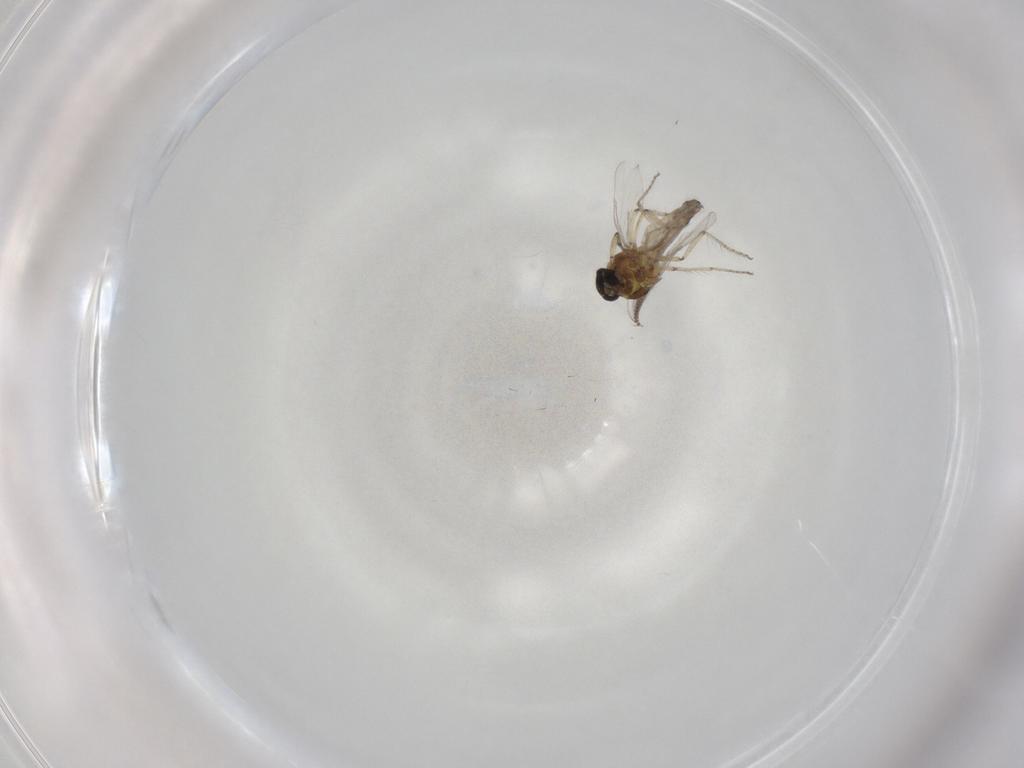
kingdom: Animalia
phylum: Arthropoda
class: Insecta
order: Diptera
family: Ceratopogonidae
